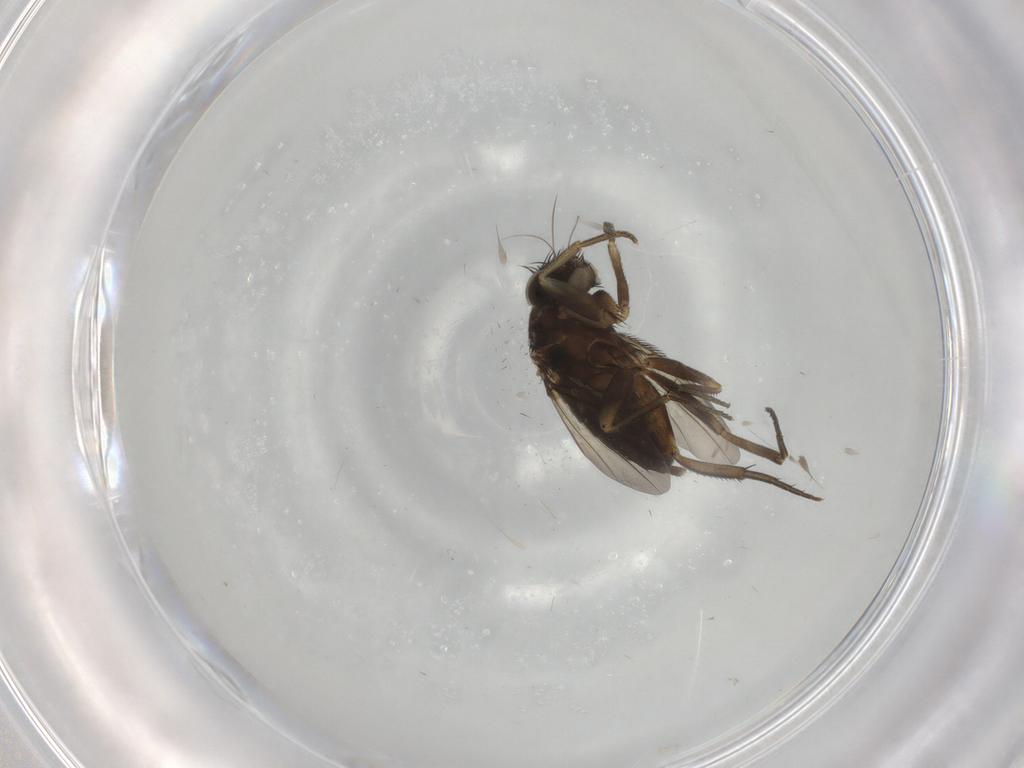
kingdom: Animalia
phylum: Arthropoda
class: Insecta
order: Diptera
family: Phoridae
